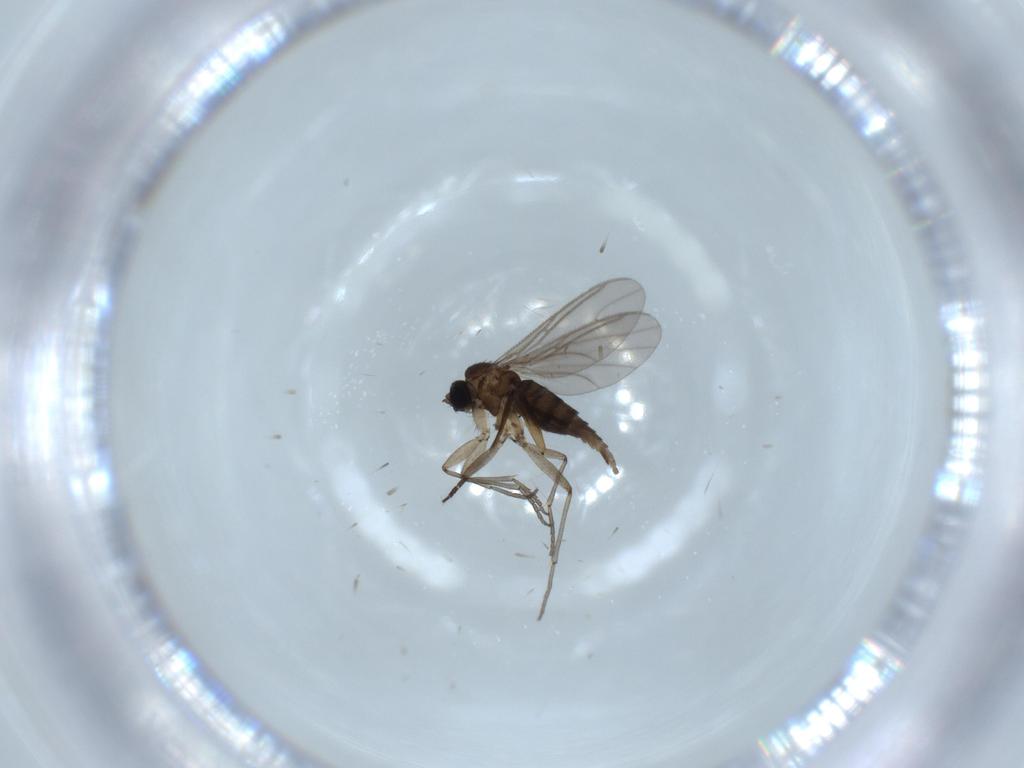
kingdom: Animalia
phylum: Arthropoda
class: Insecta
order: Diptera
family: Sciaridae
